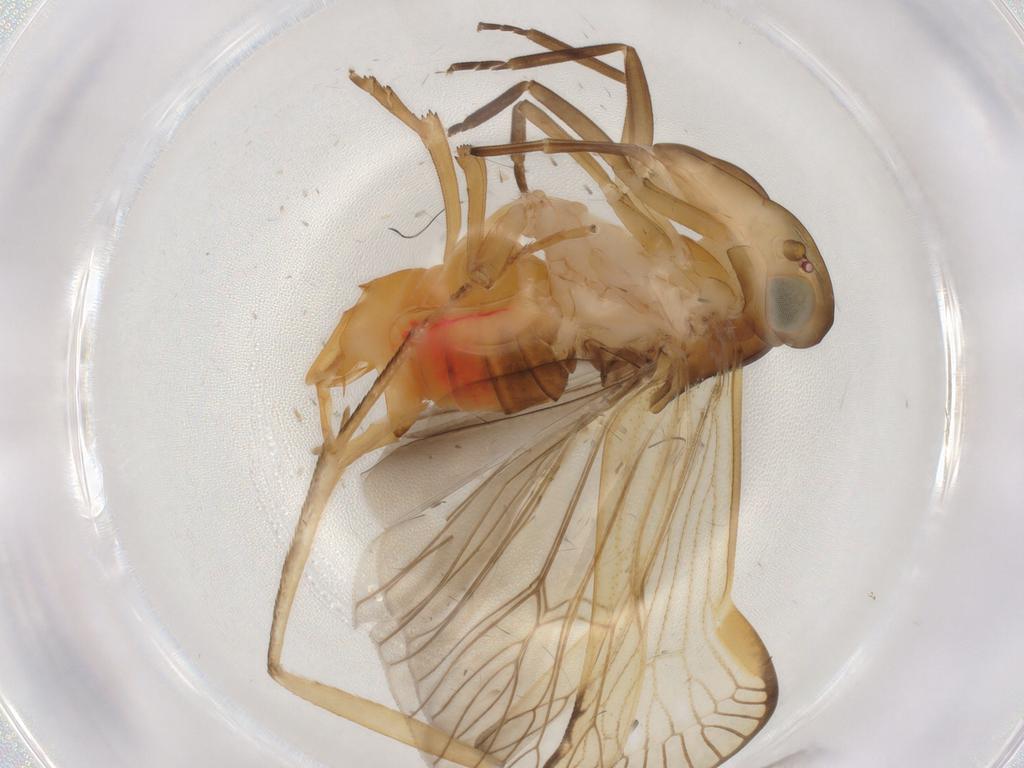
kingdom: Animalia
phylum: Arthropoda
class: Insecta
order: Hemiptera
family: Cixiidae
